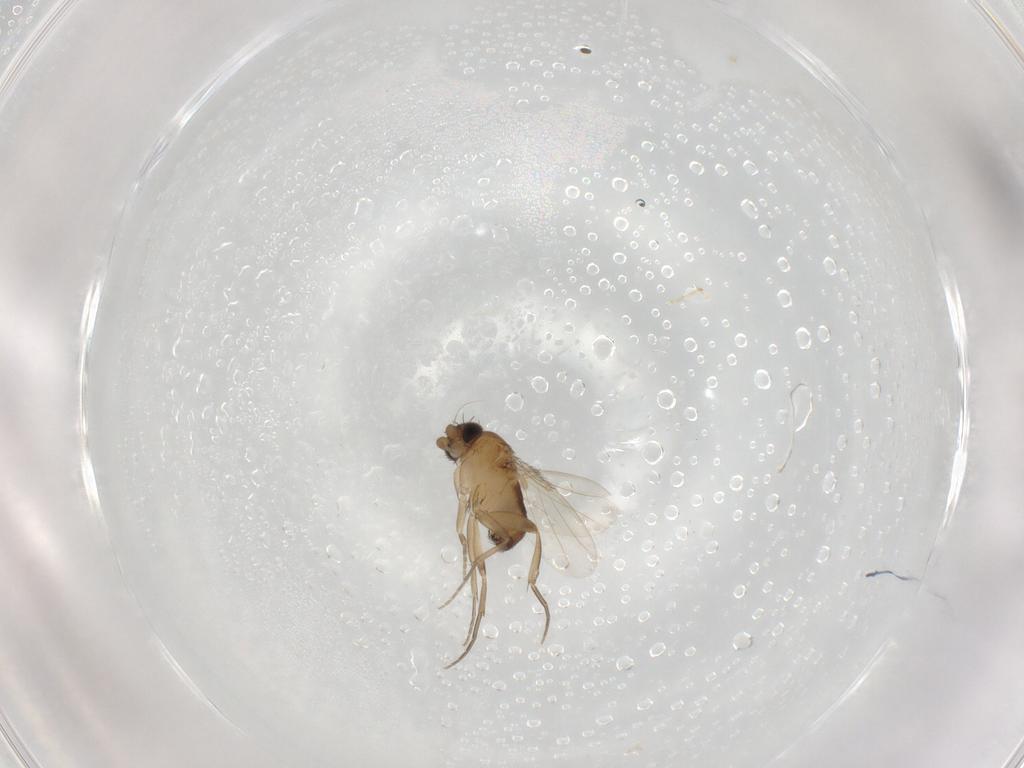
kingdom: Animalia
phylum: Arthropoda
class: Insecta
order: Diptera
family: Phoridae
